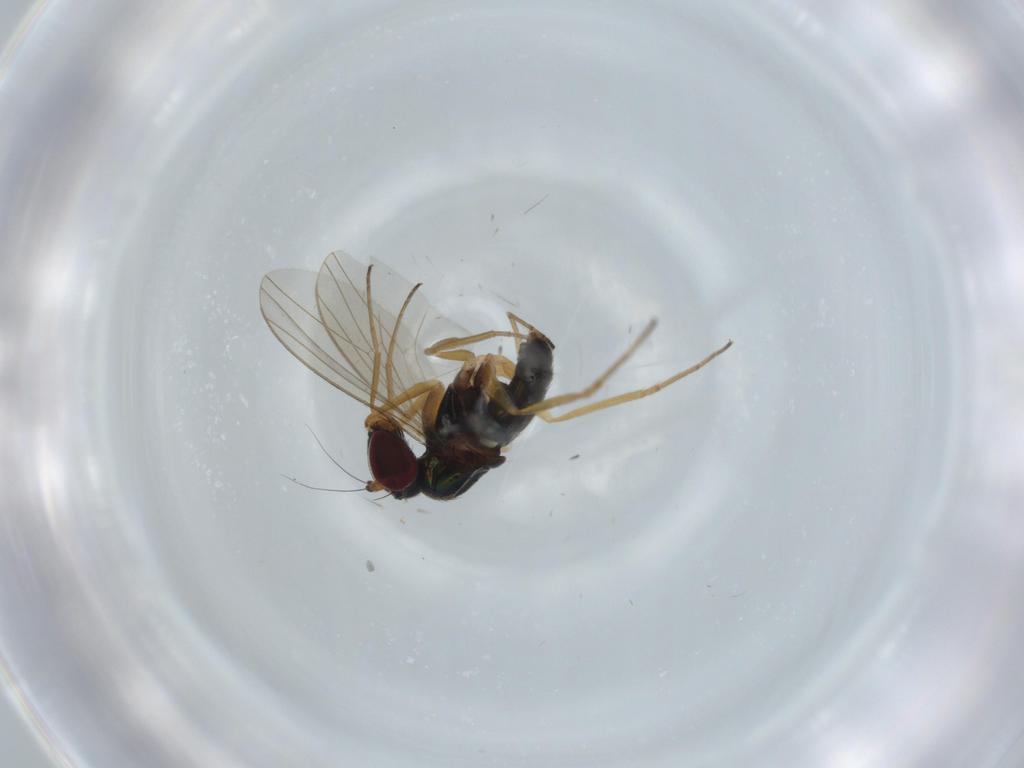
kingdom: Animalia
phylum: Arthropoda
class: Insecta
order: Diptera
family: Dolichopodidae
